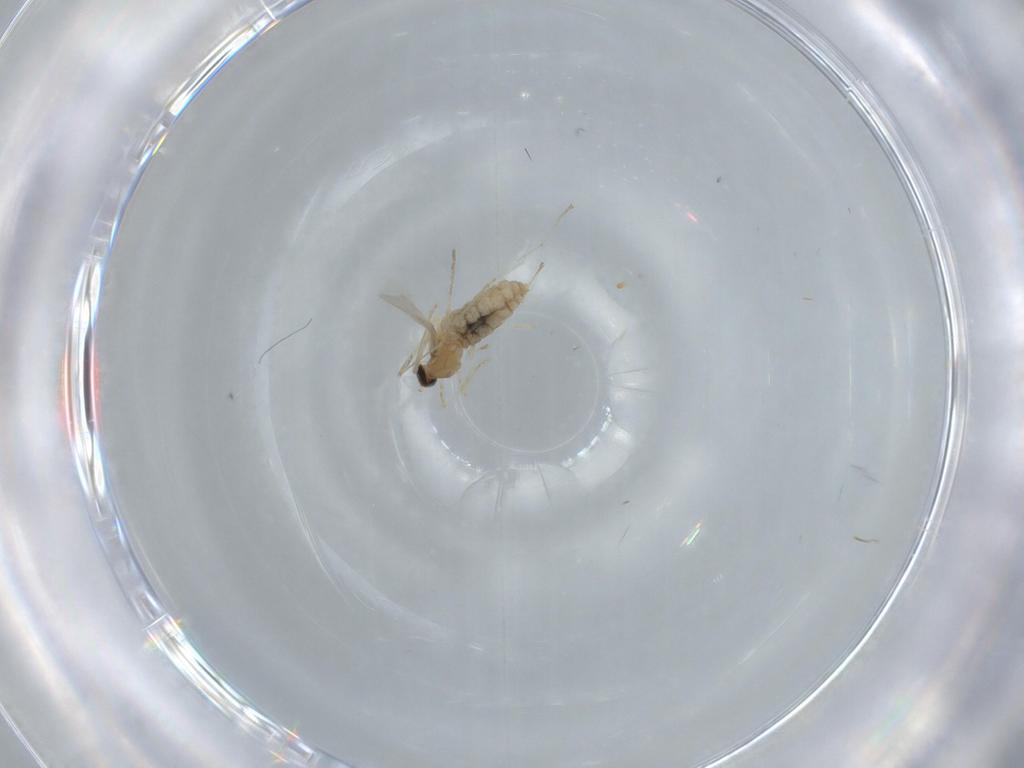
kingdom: Animalia
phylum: Arthropoda
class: Insecta
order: Diptera
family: Cecidomyiidae
